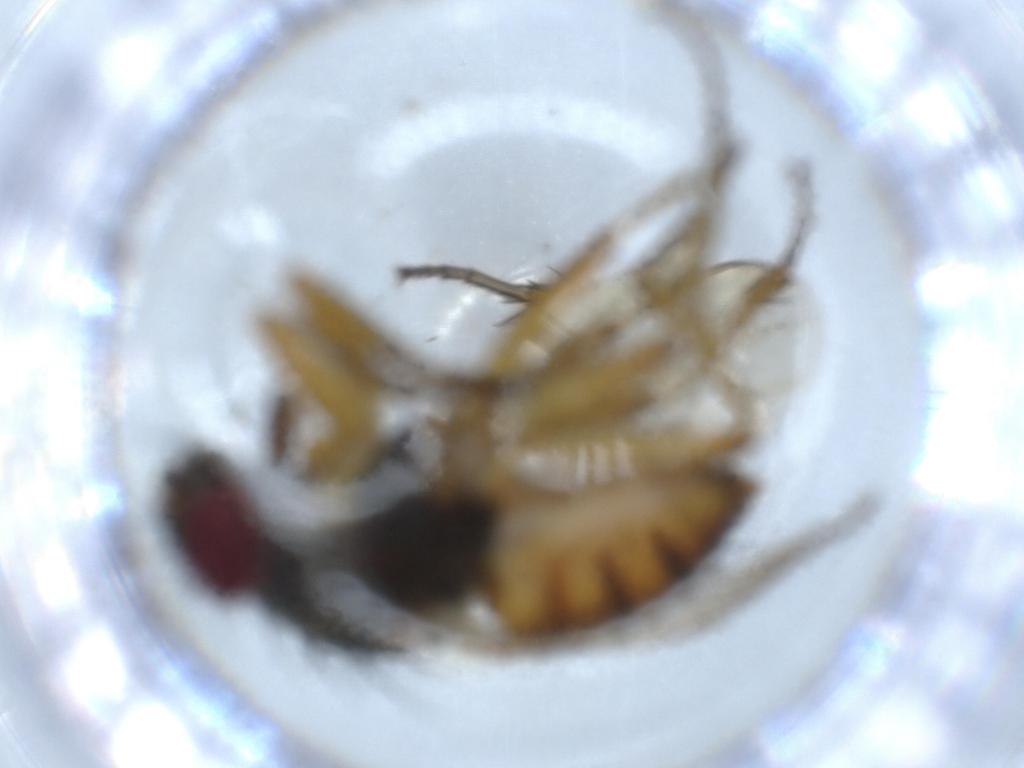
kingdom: Animalia
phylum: Arthropoda
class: Insecta
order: Diptera
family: Muscidae
